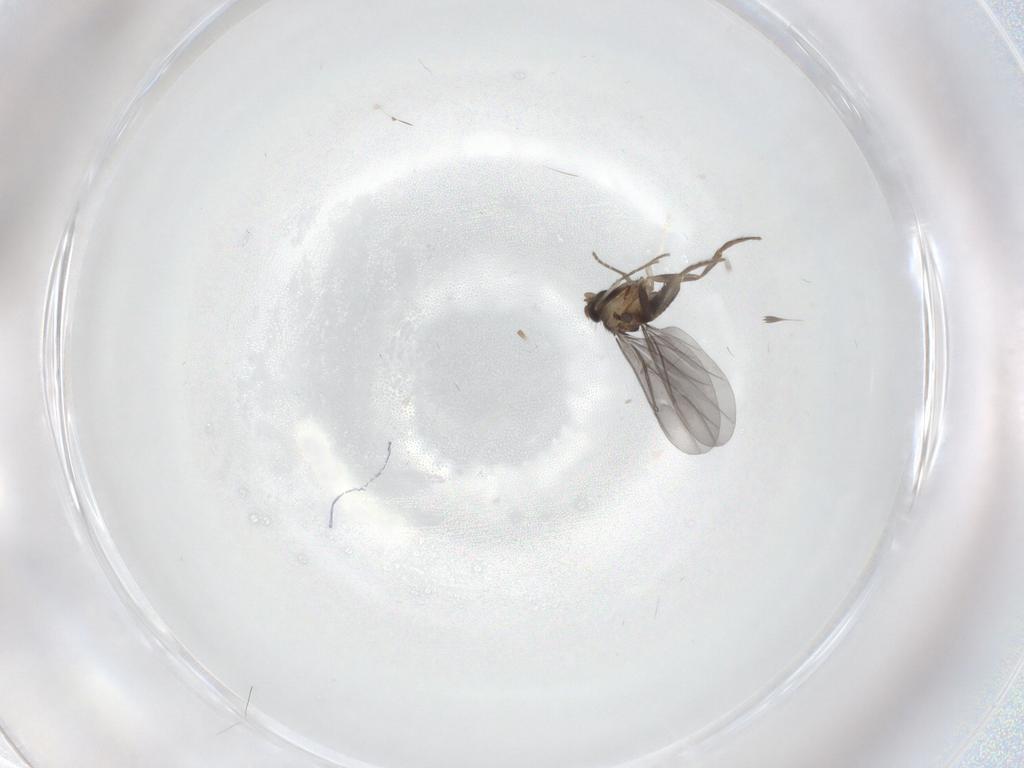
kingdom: Animalia
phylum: Arthropoda
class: Insecta
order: Diptera
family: Phoridae
